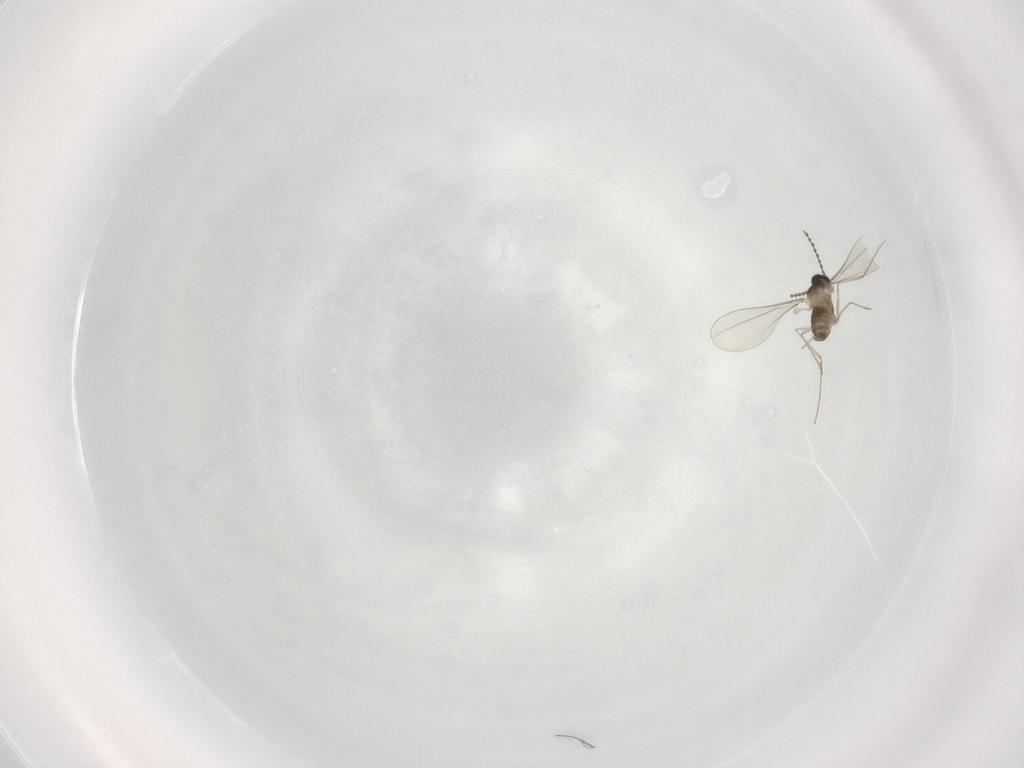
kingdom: Animalia
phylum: Arthropoda
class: Insecta
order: Diptera
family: Cecidomyiidae
